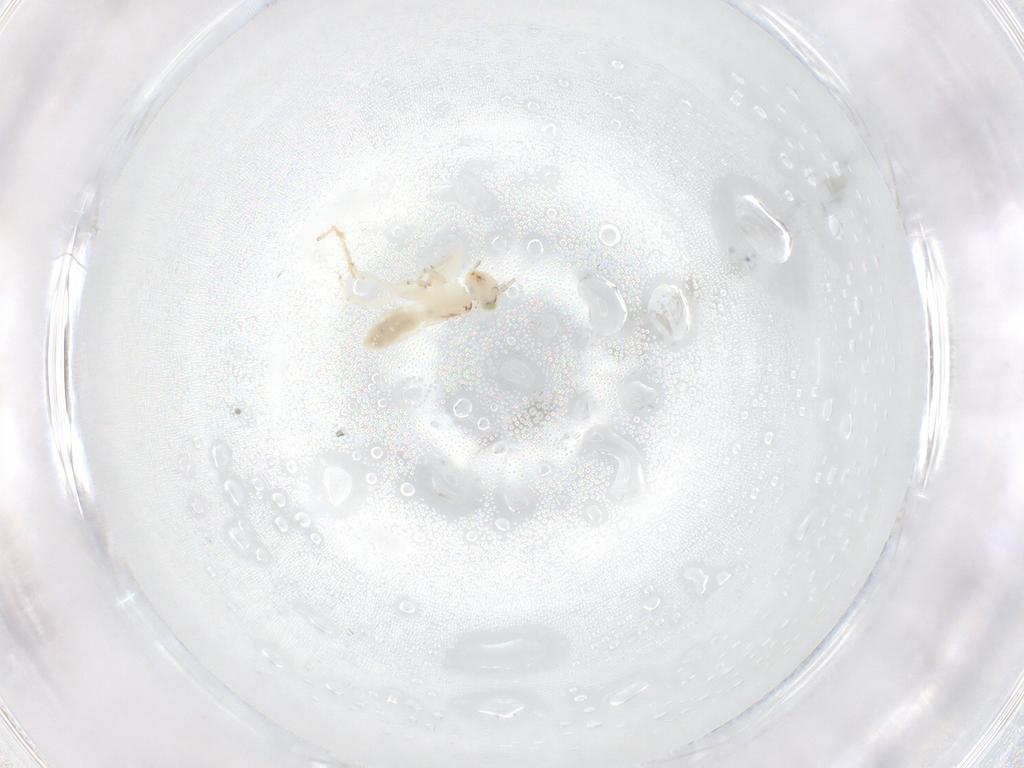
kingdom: Animalia
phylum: Arthropoda
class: Insecta
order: Psocodea
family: Lepidopsocidae
